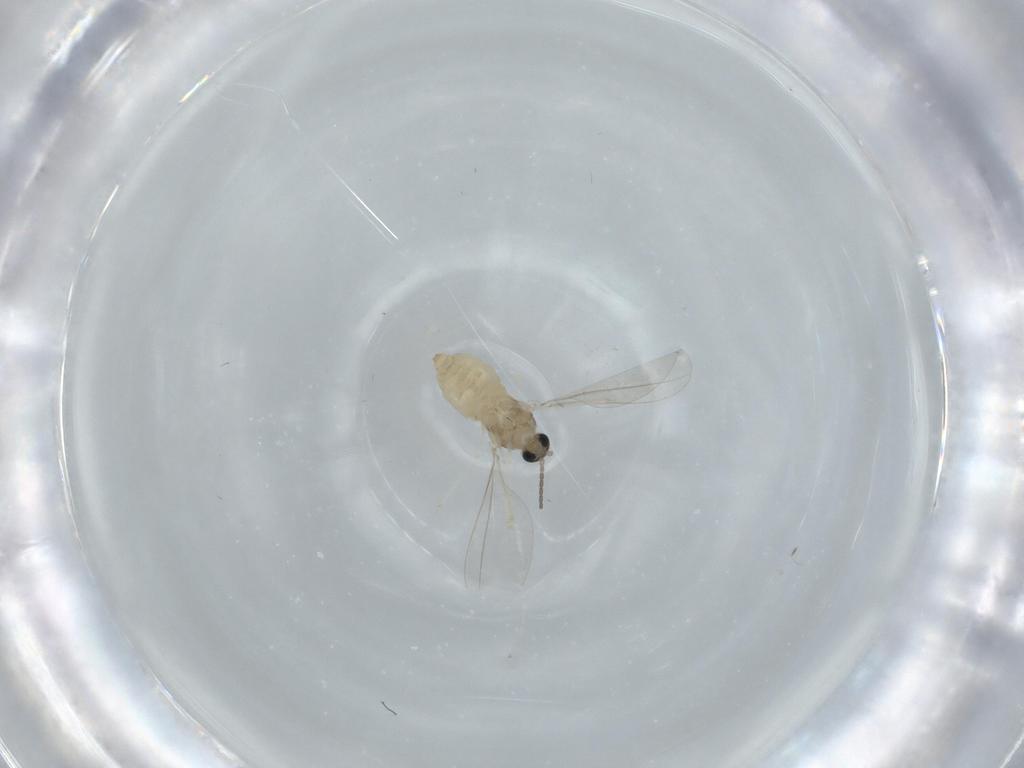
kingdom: Animalia
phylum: Arthropoda
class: Insecta
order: Diptera
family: Cecidomyiidae
